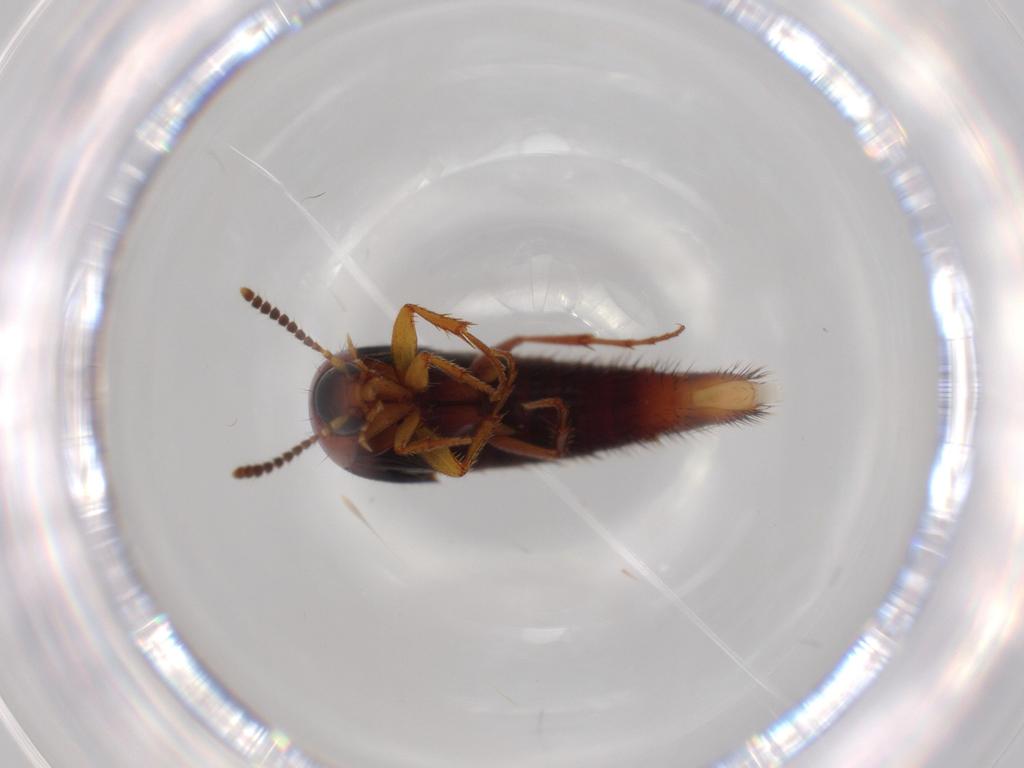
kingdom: Animalia
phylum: Arthropoda
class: Insecta
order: Coleoptera
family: Staphylinidae
